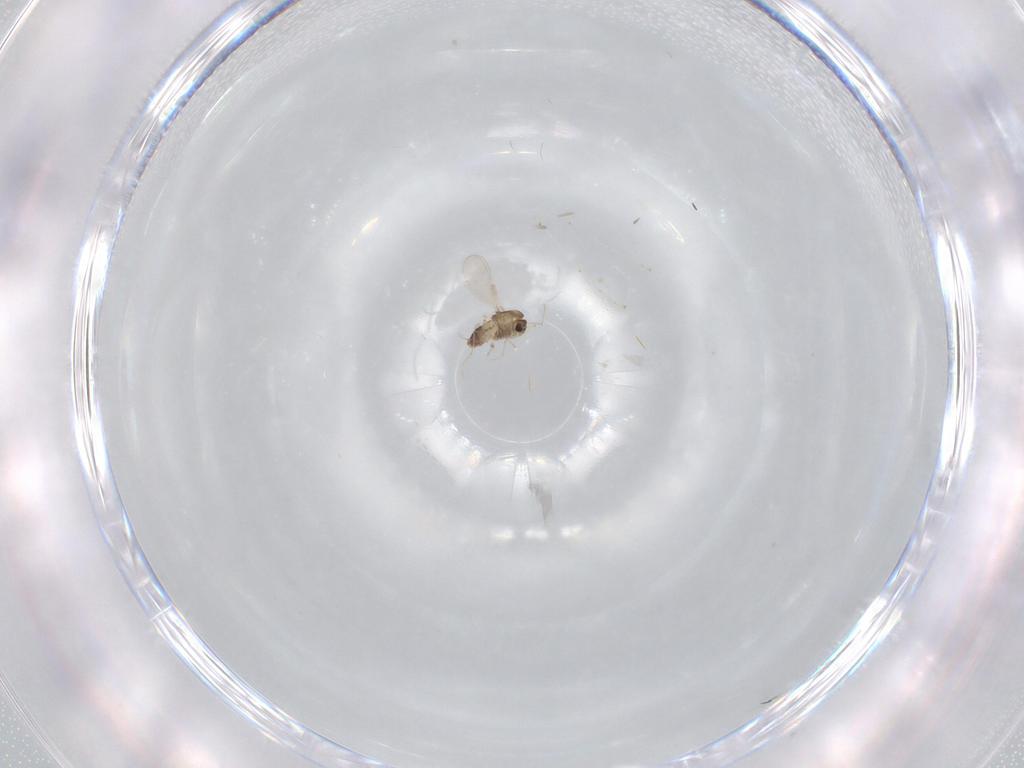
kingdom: Animalia
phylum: Arthropoda
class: Insecta
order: Diptera
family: Chironomidae
